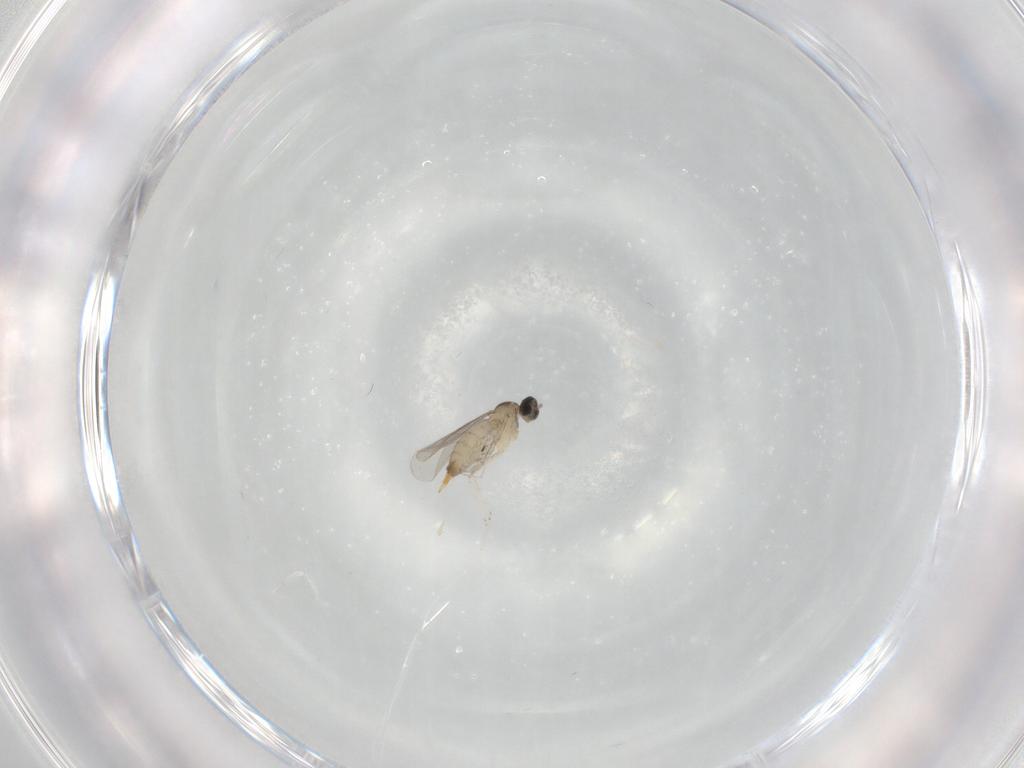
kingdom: Animalia
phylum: Arthropoda
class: Insecta
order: Diptera
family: Cecidomyiidae
